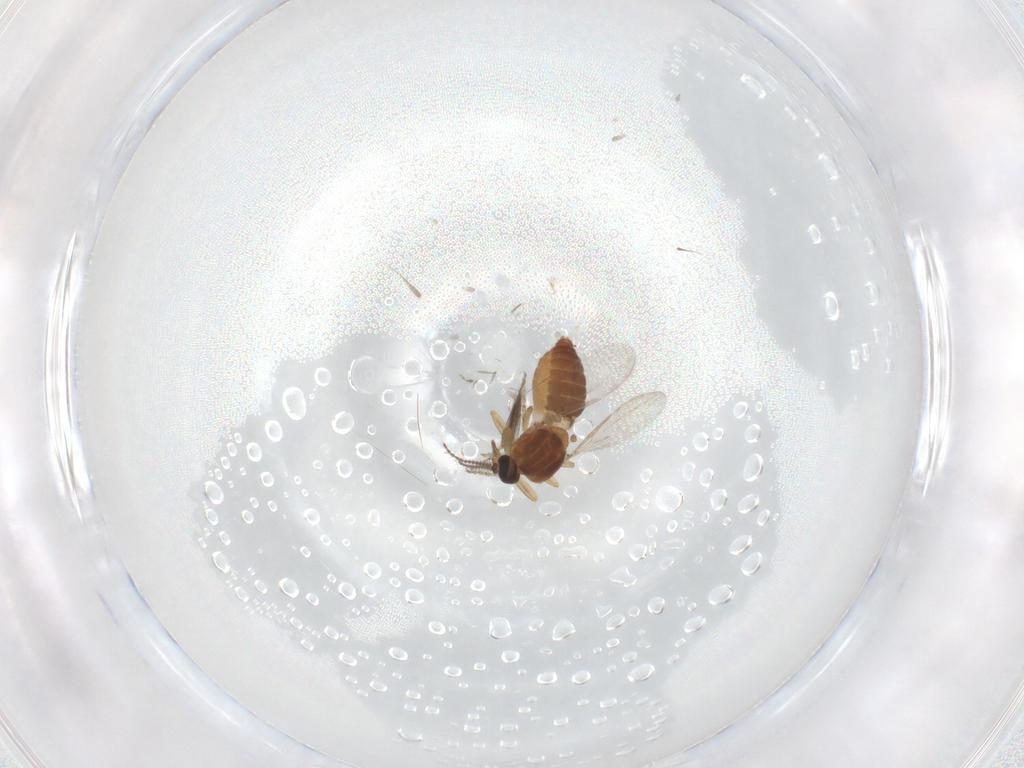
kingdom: Animalia
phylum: Arthropoda
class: Insecta
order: Diptera
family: Ceratopogonidae
